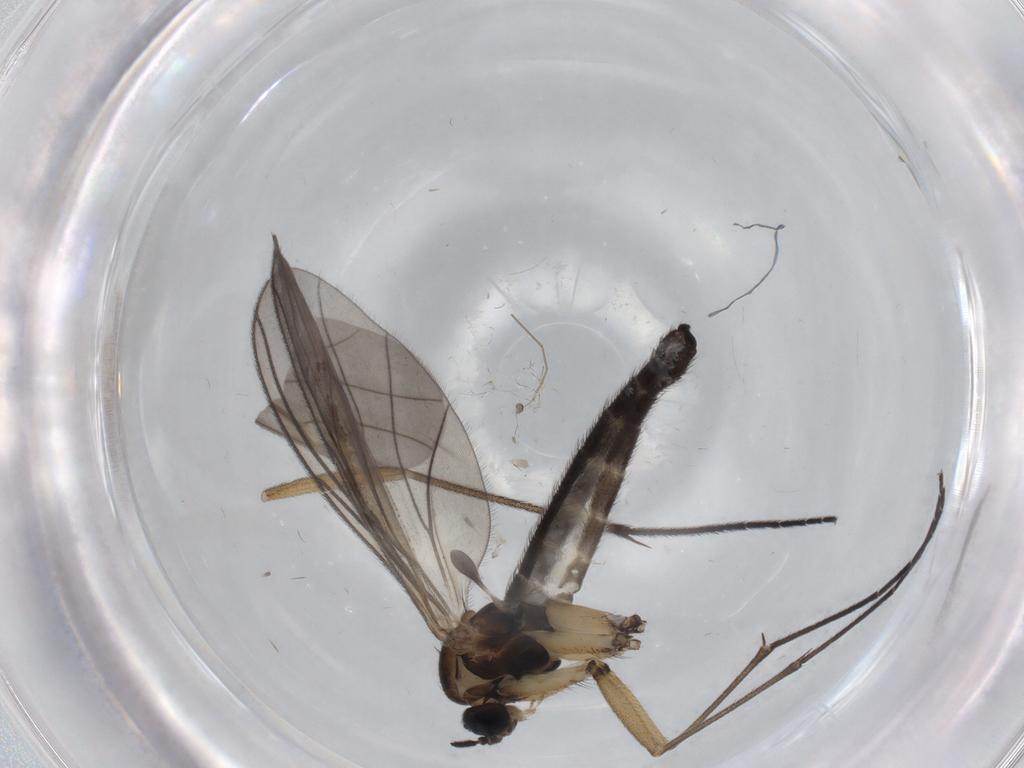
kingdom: Animalia
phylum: Arthropoda
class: Insecta
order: Diptera
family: Sciaridae
